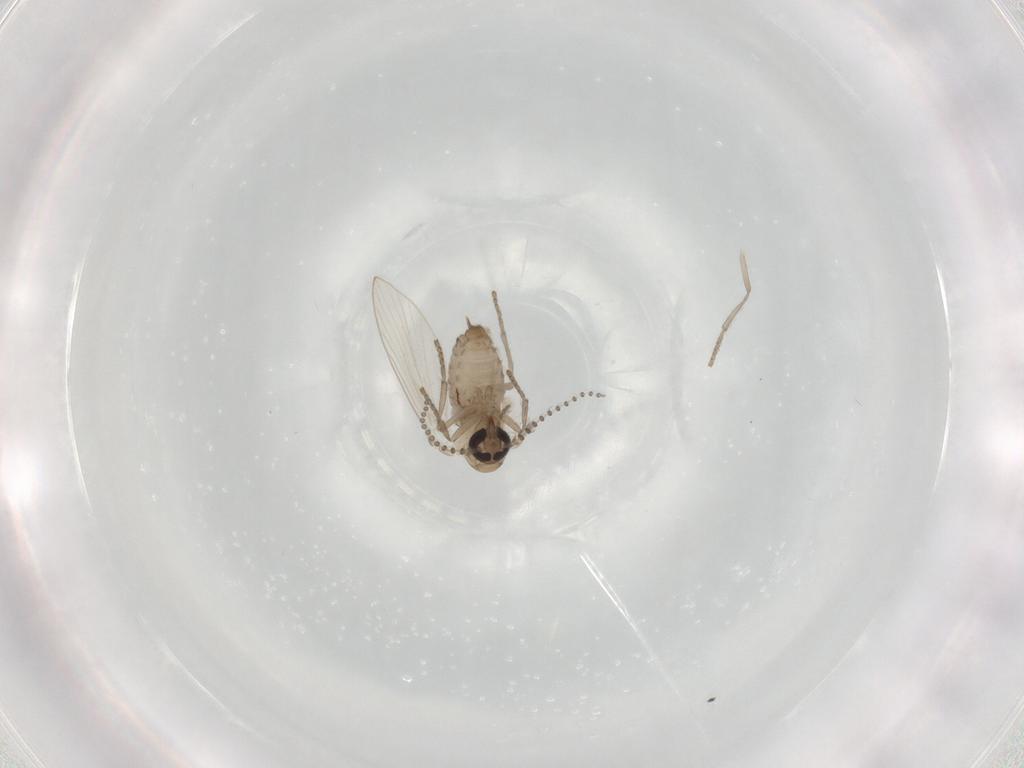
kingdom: Animalia
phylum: Arthropoda
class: Insecta
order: Diptera
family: Psychodidae
